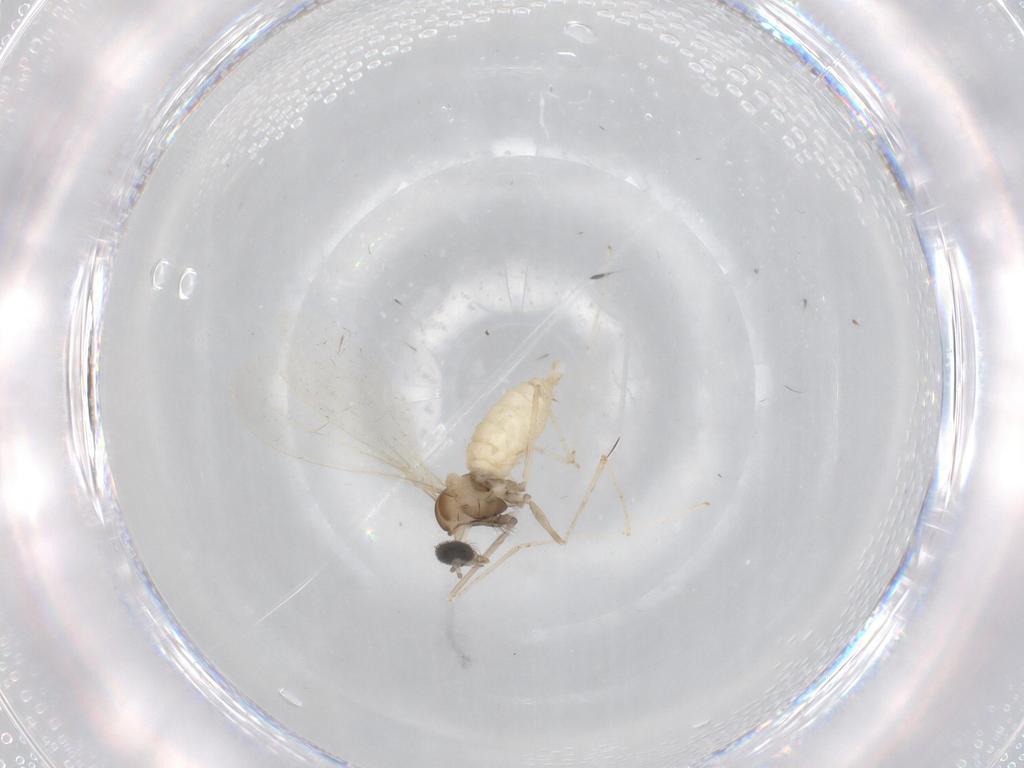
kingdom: Animalia
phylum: Arthropoda
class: Insecta
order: Diptera
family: Cecidomyiidae
